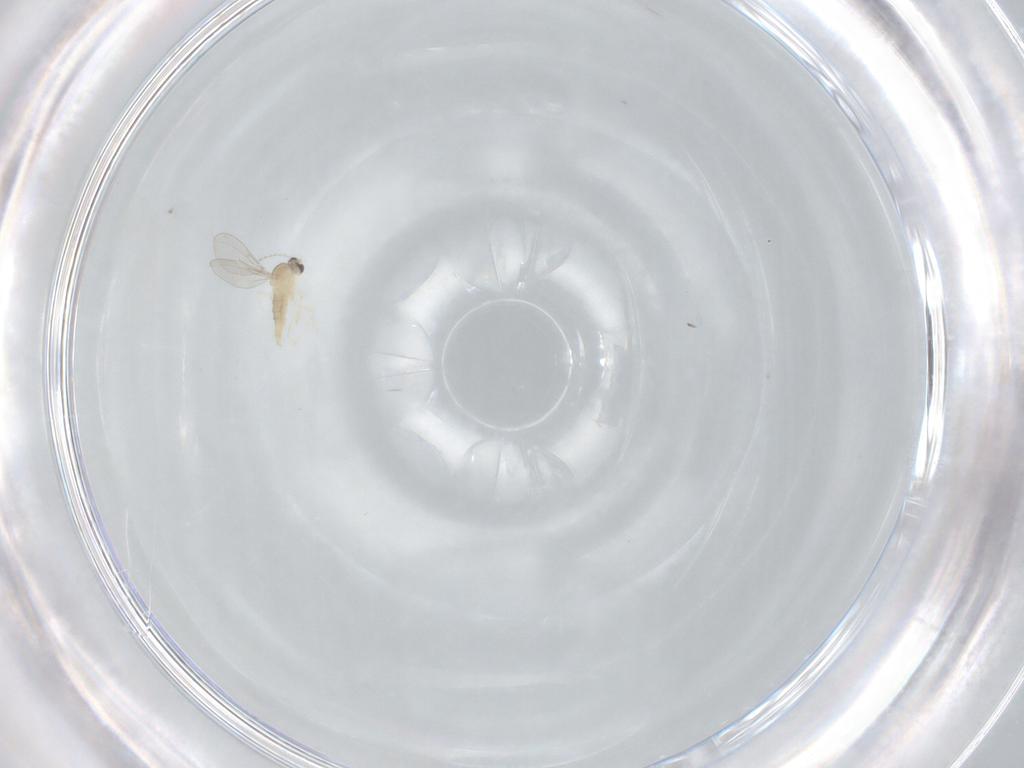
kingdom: Animalia
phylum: Arthropoda
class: Insecta
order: Diptera
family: Cecidomyiidae
